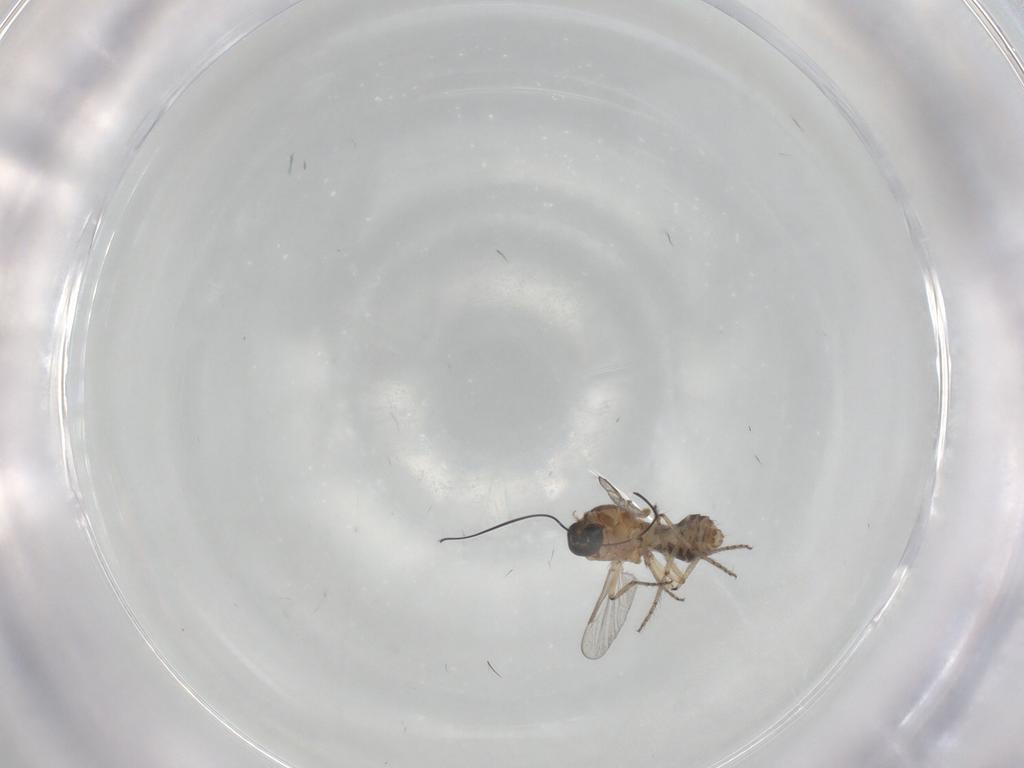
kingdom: Animalia
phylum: Arthropoda
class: Insecta
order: Diptera
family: Ceratopogonidae
